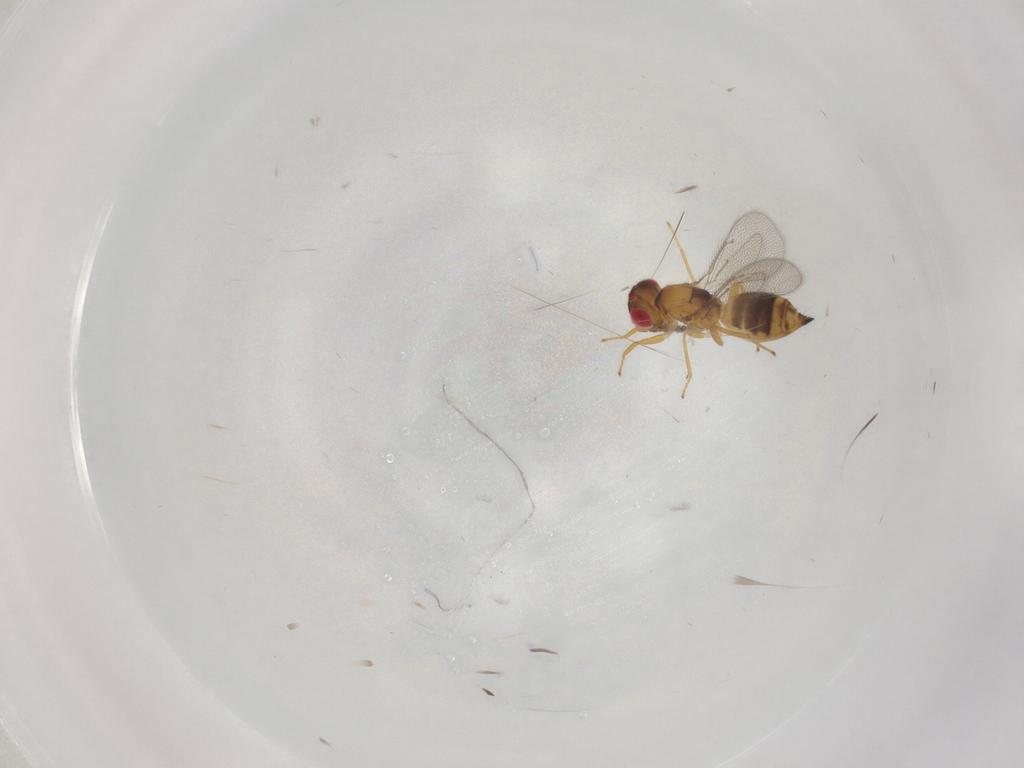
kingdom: Animalia
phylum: Arthropoda
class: Insecta
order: Hymenoptera
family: Eulophidae
